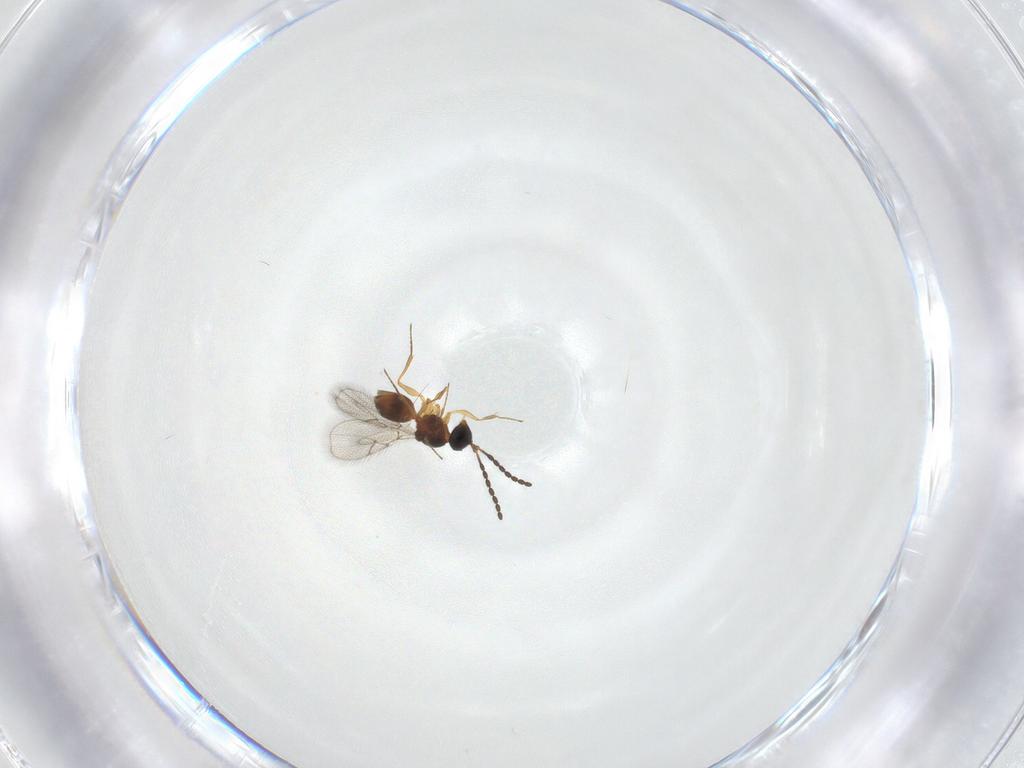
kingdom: Animalia
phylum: Arthropoda
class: Insecta
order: Hymenoptera
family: Figitidae
